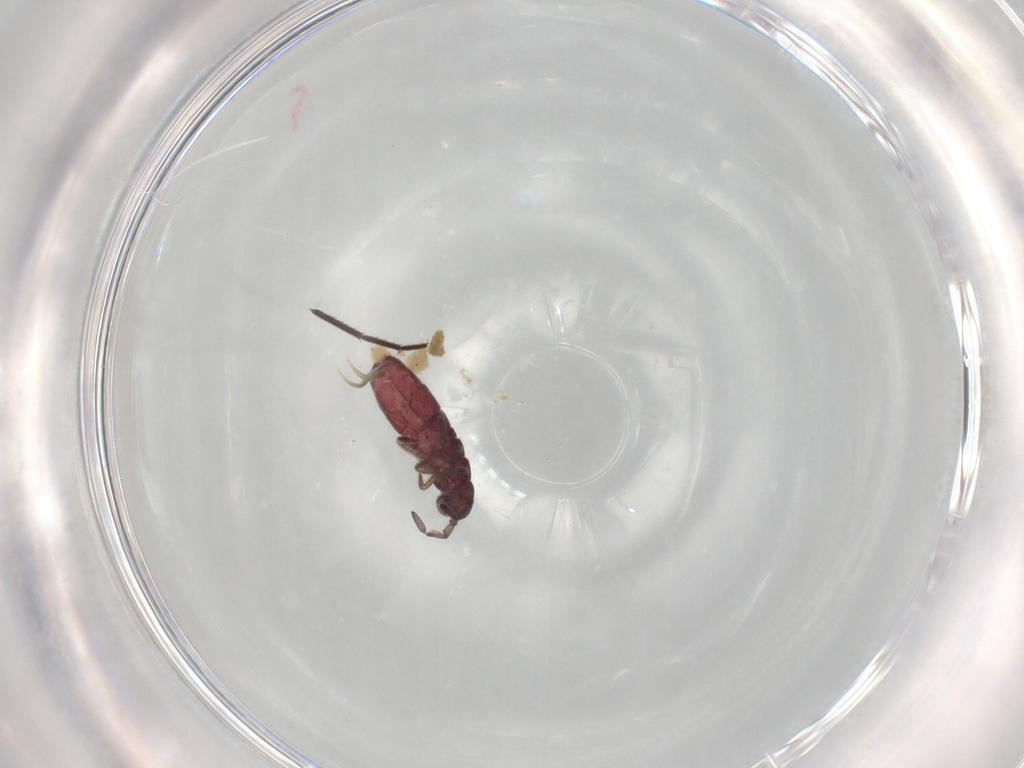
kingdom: Animalia
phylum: Arthropoda
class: Collembola
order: Entomobryomorpha
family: Isotomidae
